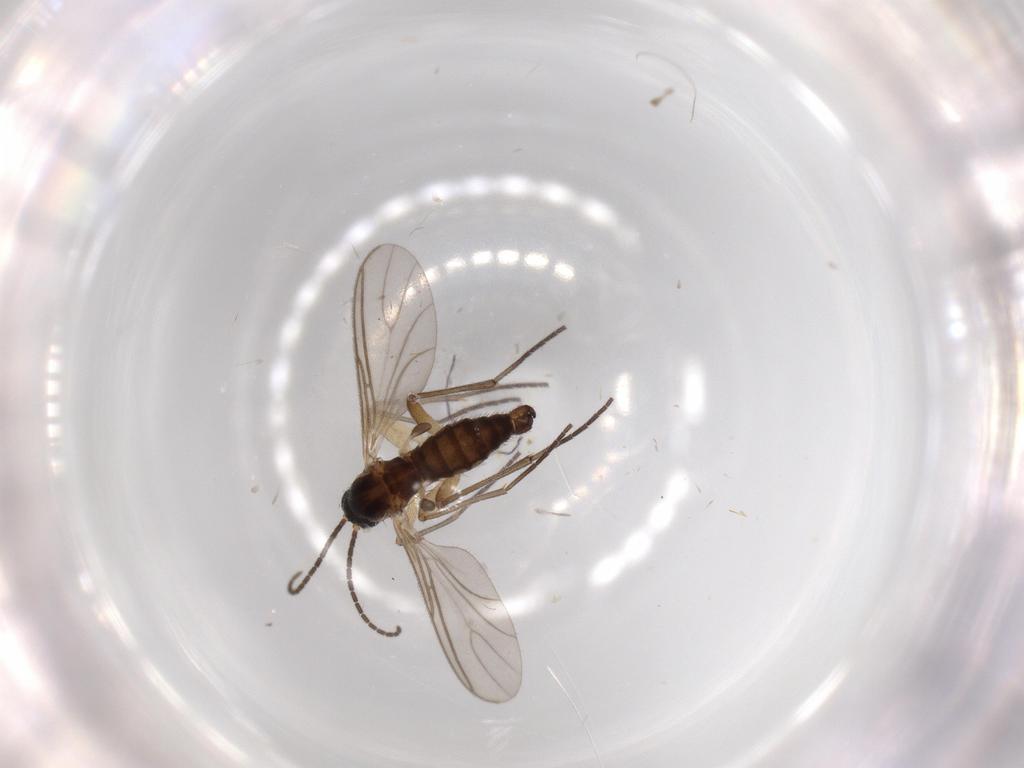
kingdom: Animalia
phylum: Arthropoda
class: Insecta
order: Diptera
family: Sciaridae
